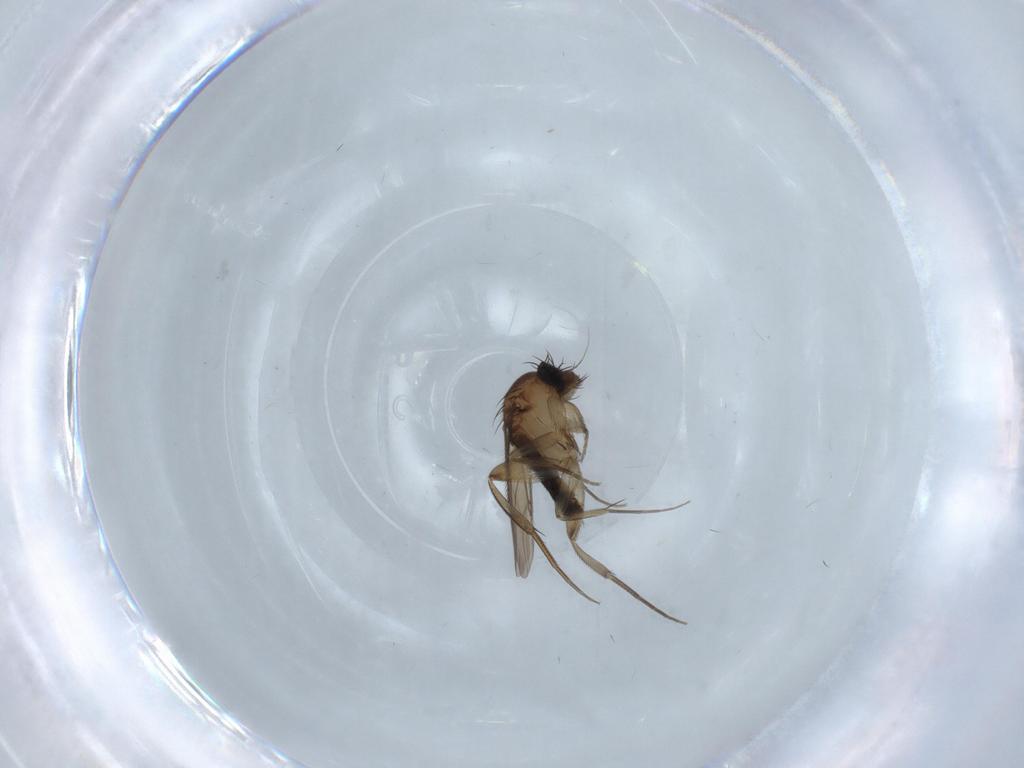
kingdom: Animalia
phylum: Arthropoda
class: Insecta
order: Diptera
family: Phoridae
